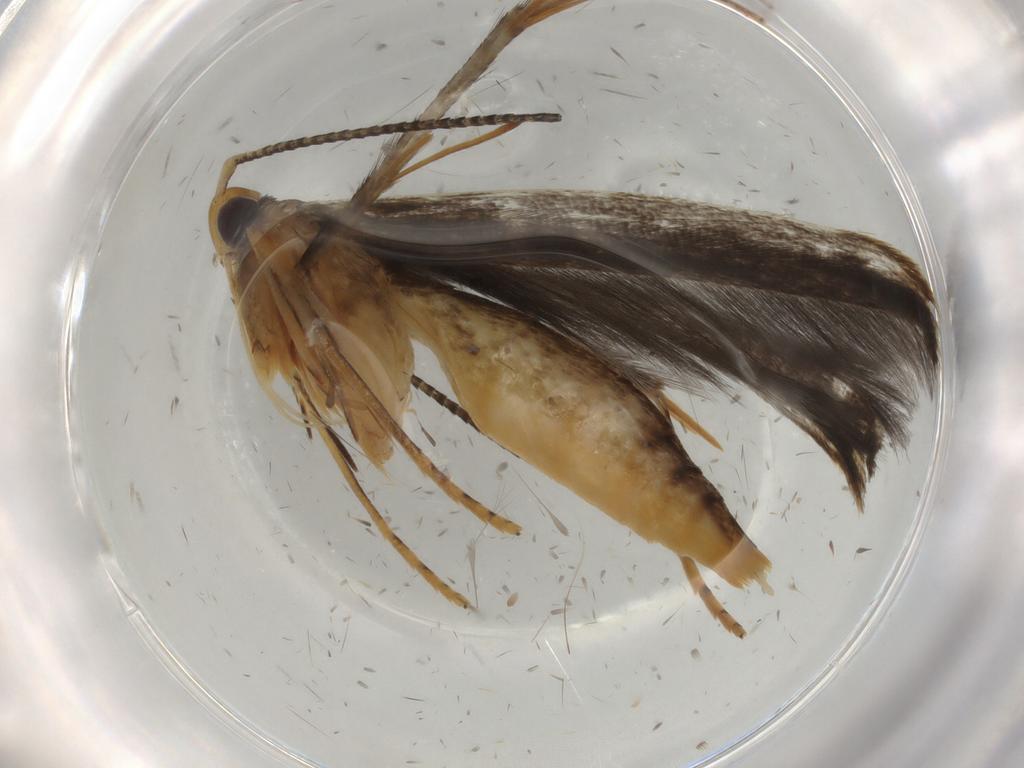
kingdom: Animalia
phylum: Arthropoda
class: Insecta
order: Lepidoptera
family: Pterolonchidae
